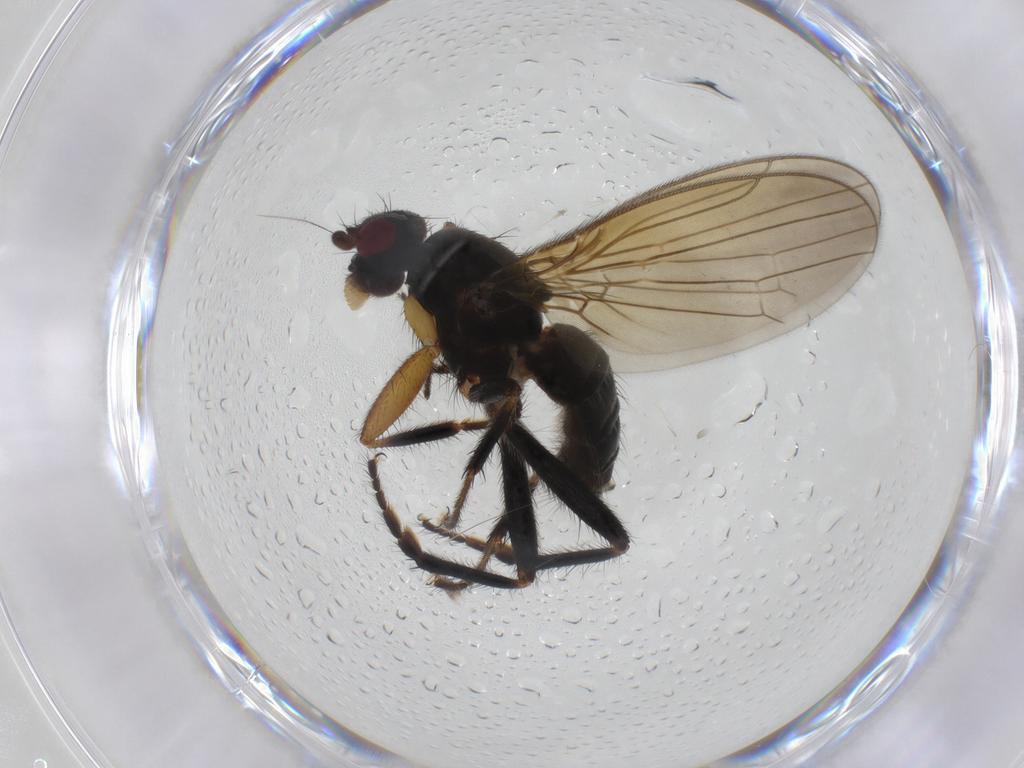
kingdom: Animalia
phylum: Arthropoda
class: Insecta
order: Diptera
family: Sphaeroceridae
